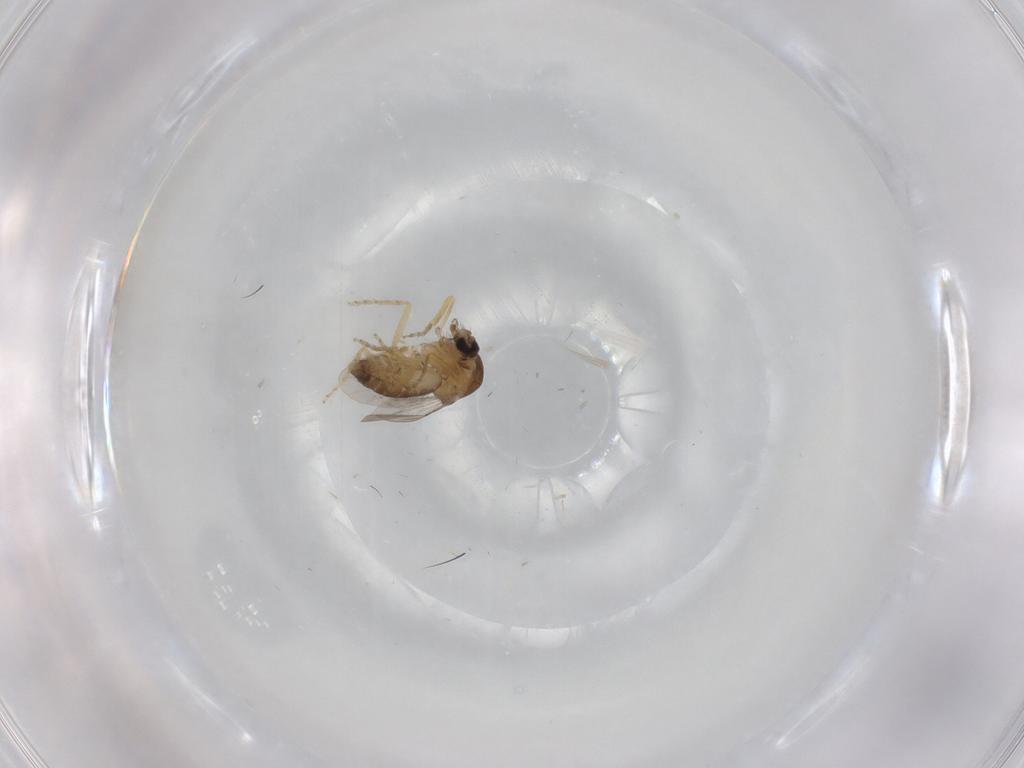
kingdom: Animalia
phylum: Arthropoda
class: Insecta
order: Diptera
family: Ceratopogonidae
